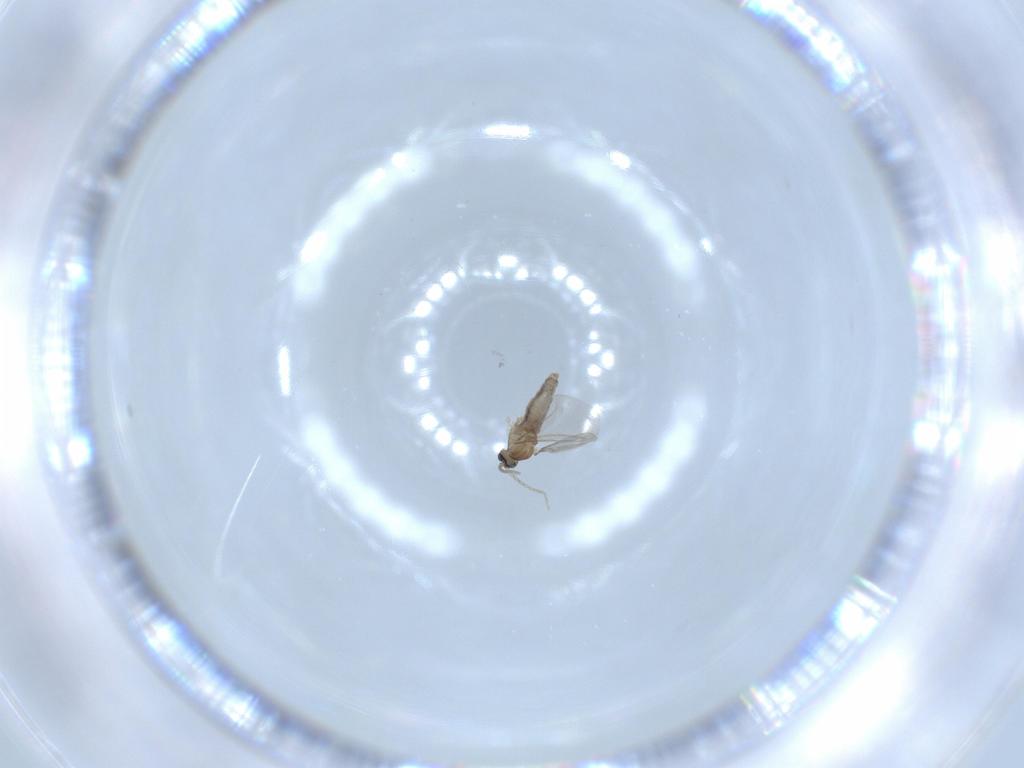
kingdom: Animalia
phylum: Arthropoda
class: Insecta
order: Diptera
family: Cecidomyiidae
